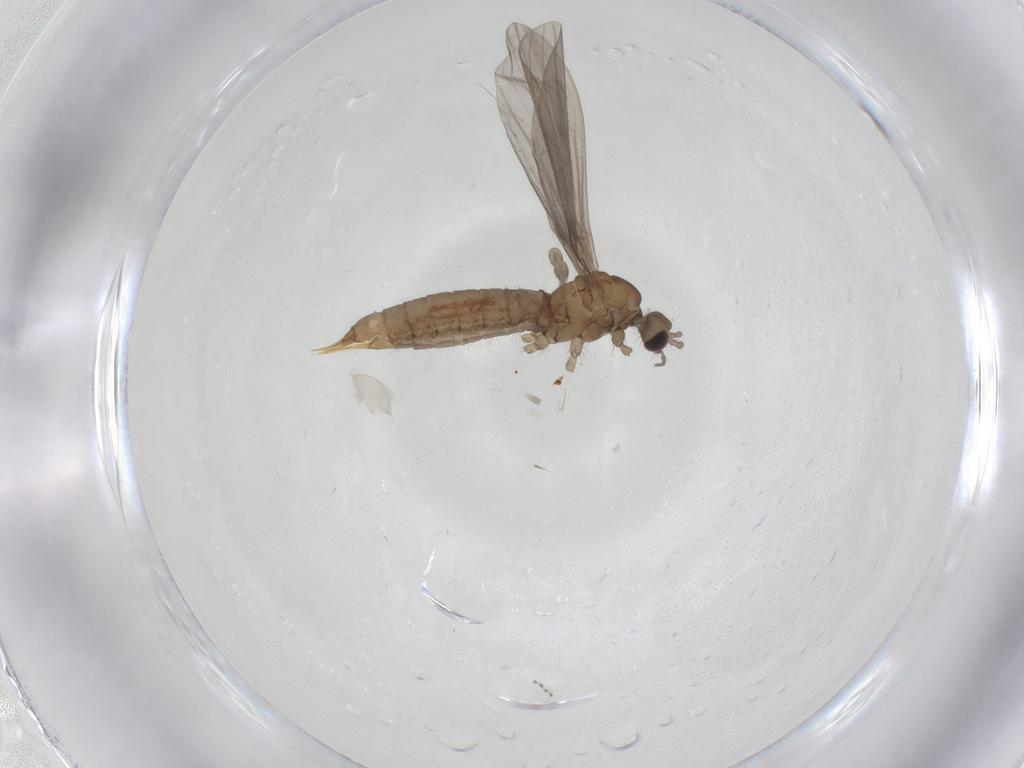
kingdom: Animalia
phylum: Arthropoda
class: Insecta
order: Diptera
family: Limoniidae
